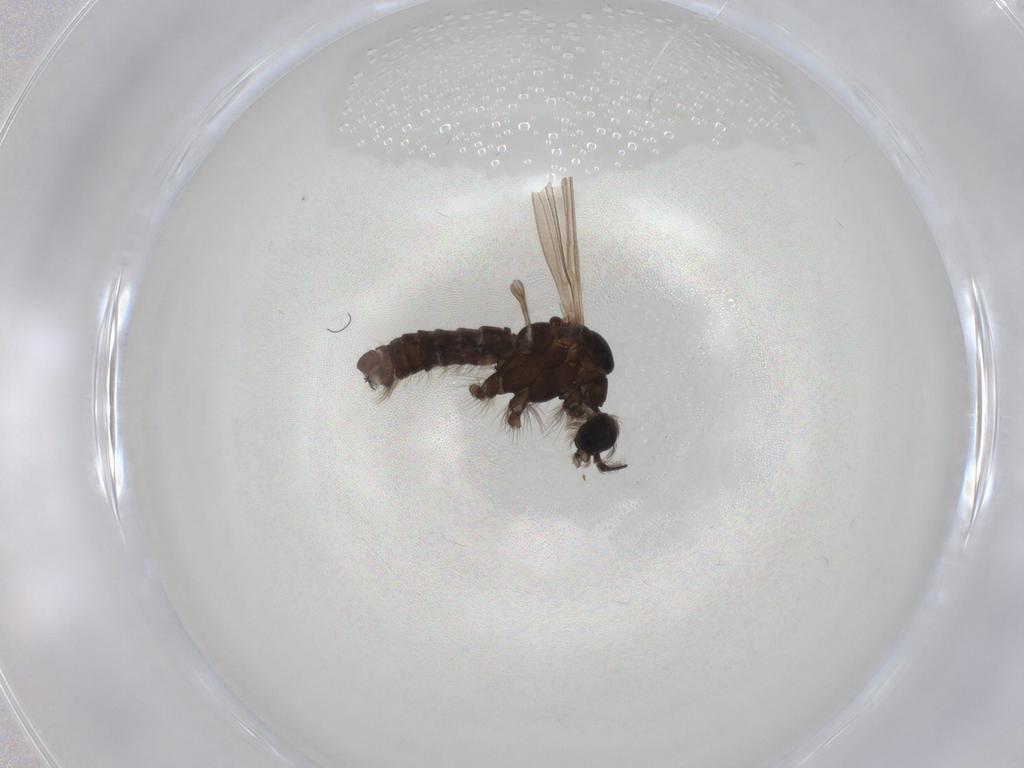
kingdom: Animalia
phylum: Arthropoda
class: Insecta
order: Diptera
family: Limoniidae
